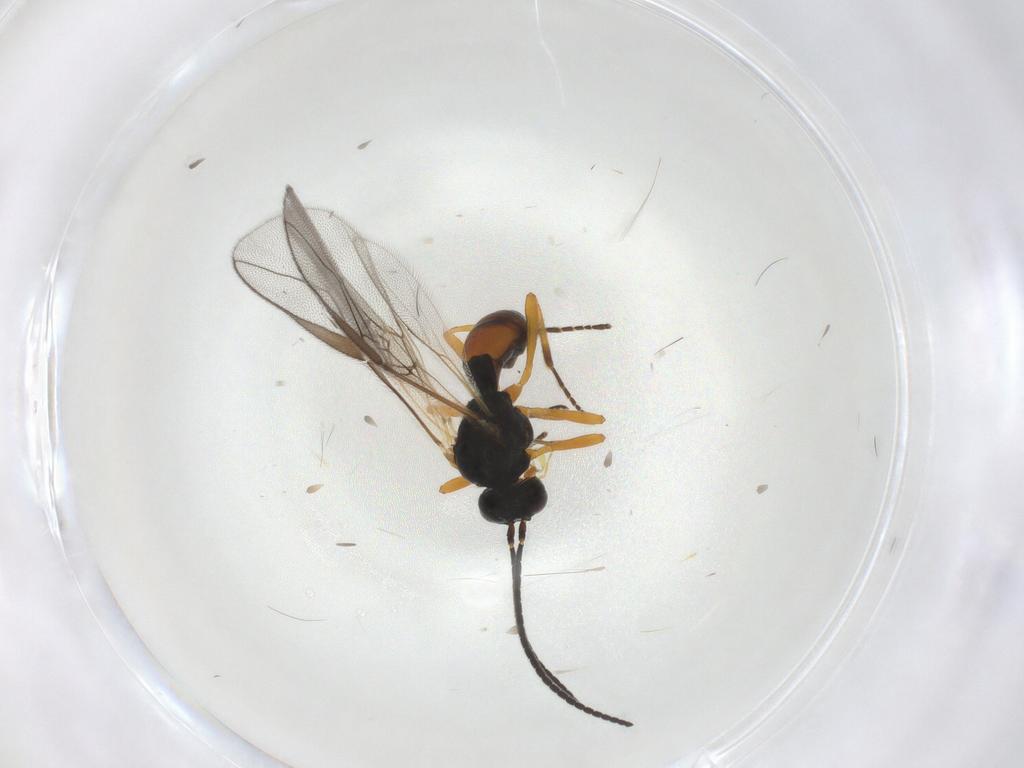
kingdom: Animalia
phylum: Arthropoda
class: Insecta
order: Hymenoptera
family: Braconidae
